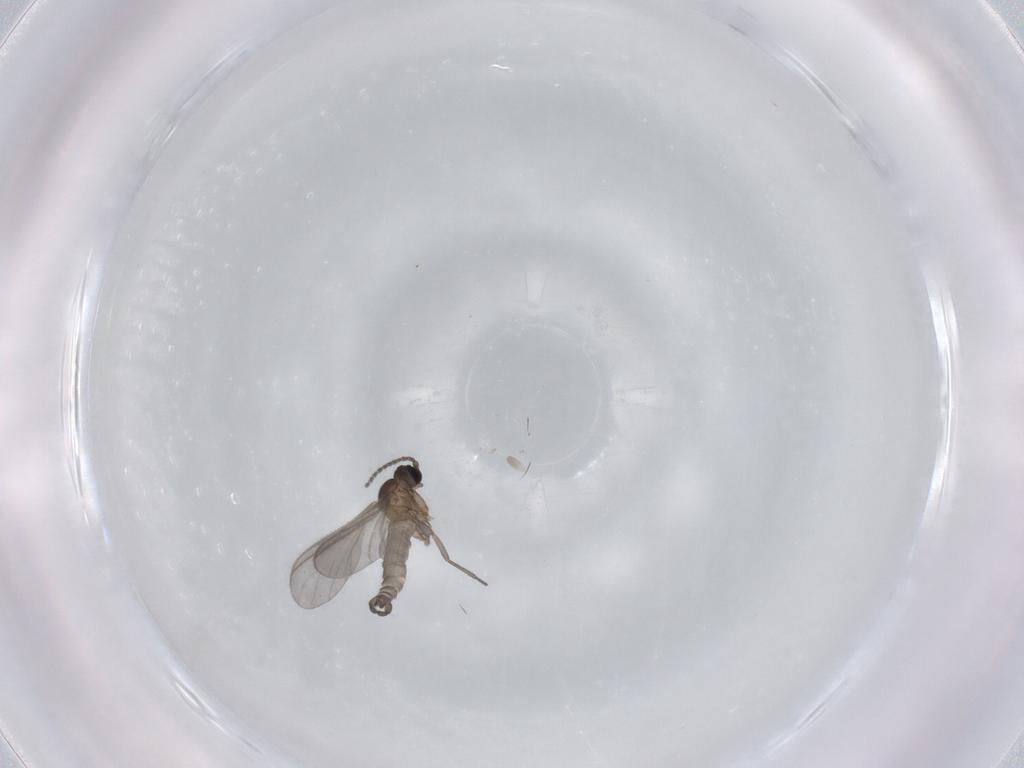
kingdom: Animalia
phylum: Arthropoda
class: Insecta
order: Diptera
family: Sciaridae
